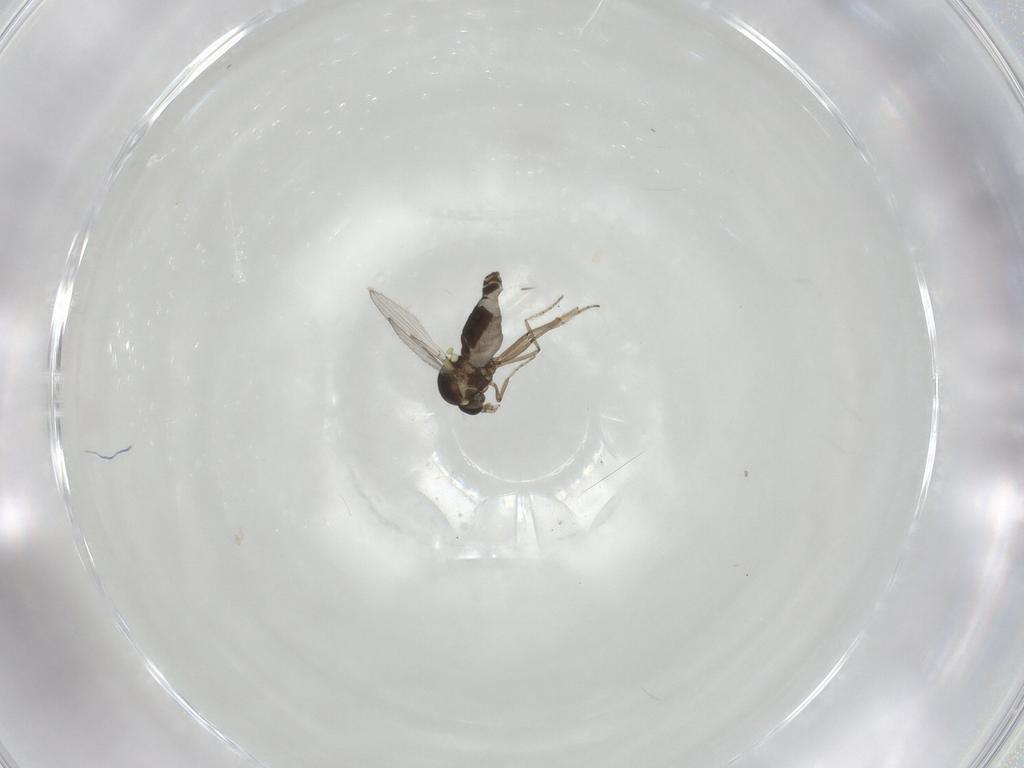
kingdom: Animalia
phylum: Arthropoda
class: Insecta
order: Diptera
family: Ceratopogonidae
